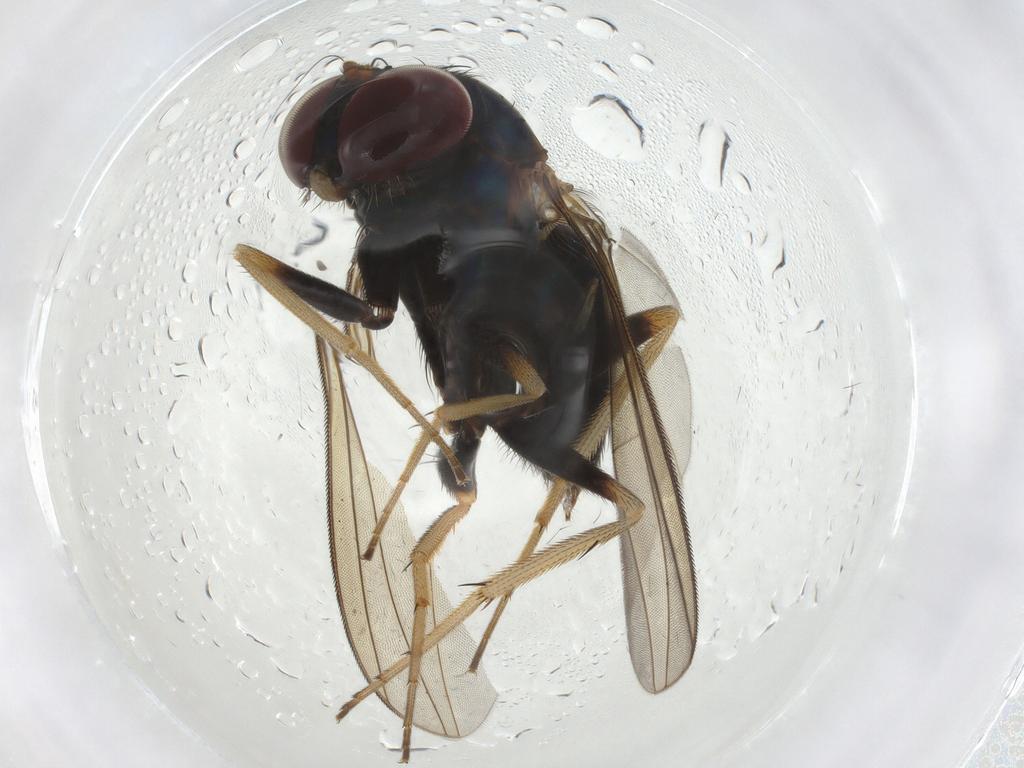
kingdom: Animalia
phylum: Arthropoda
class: Insecta
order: Diptera
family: Dolichopodidae
